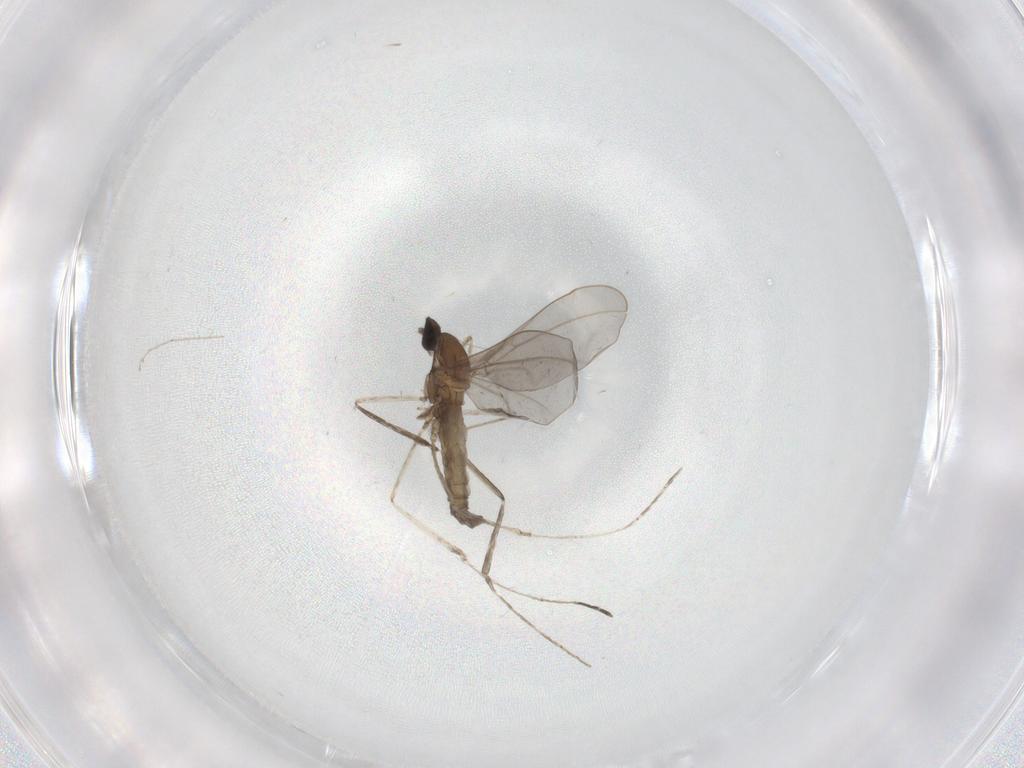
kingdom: Animalia
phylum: Arthropoda
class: Insecta
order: Diptera
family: Cecidomyiidae
